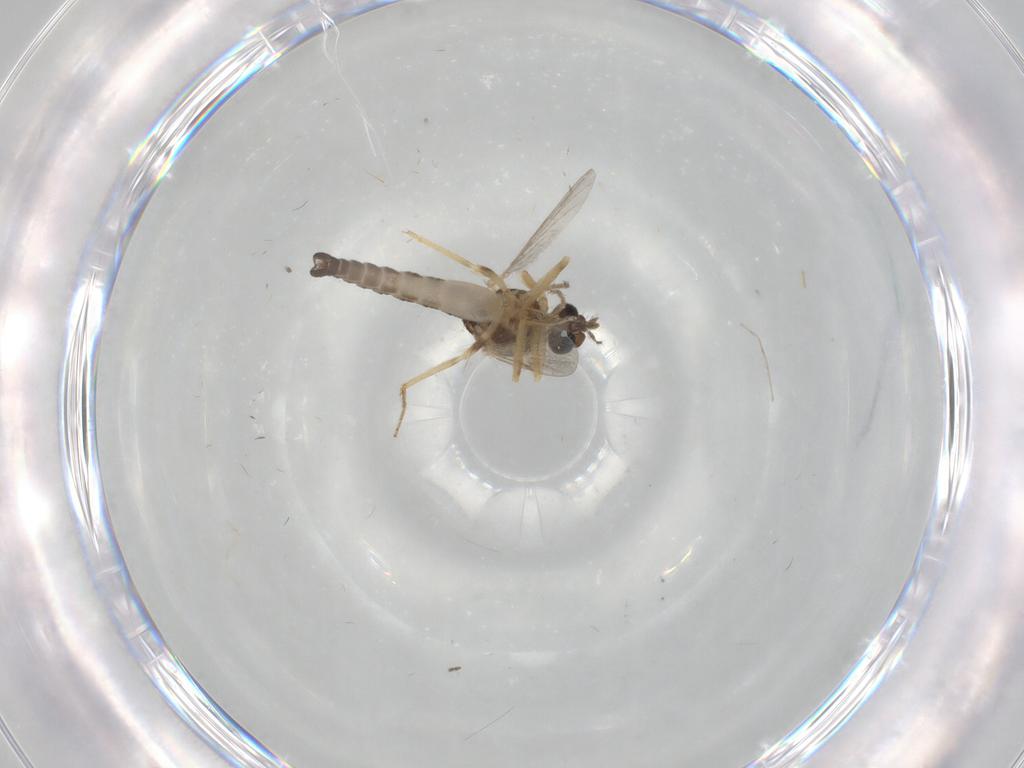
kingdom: Animalia
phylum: Arthropoda
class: Insecta
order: Diptera
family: Ceratopogonidae
